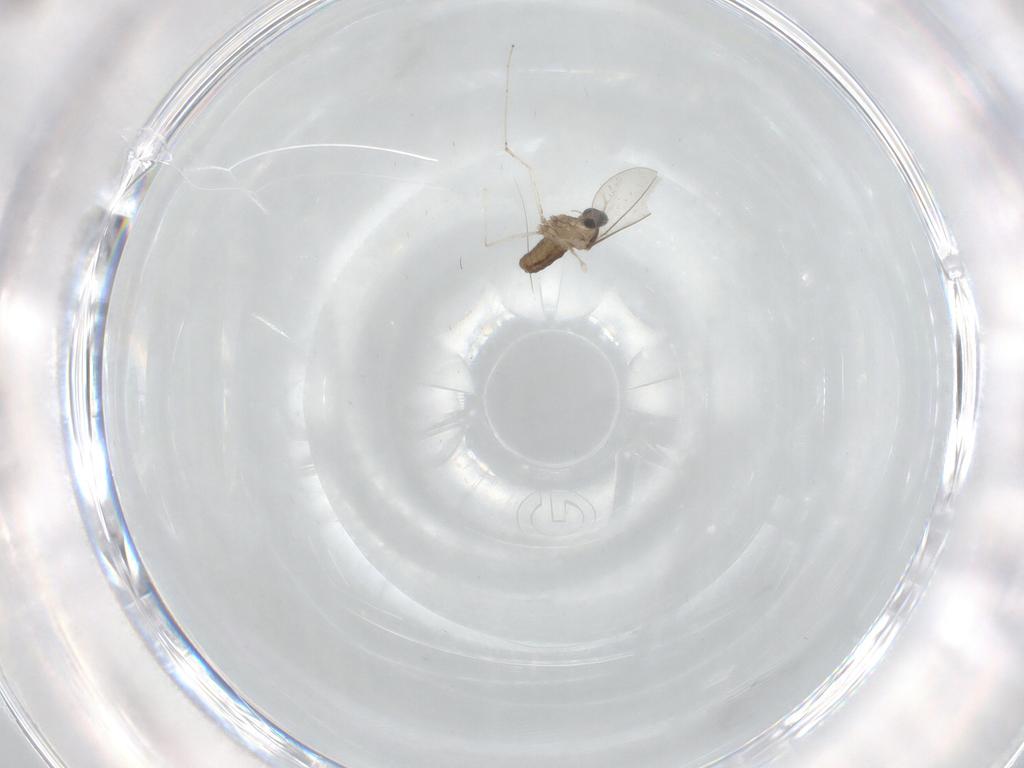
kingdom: Animalia
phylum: Arthropoda
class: Insecta
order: Diptera
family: Cecidomyiidae
